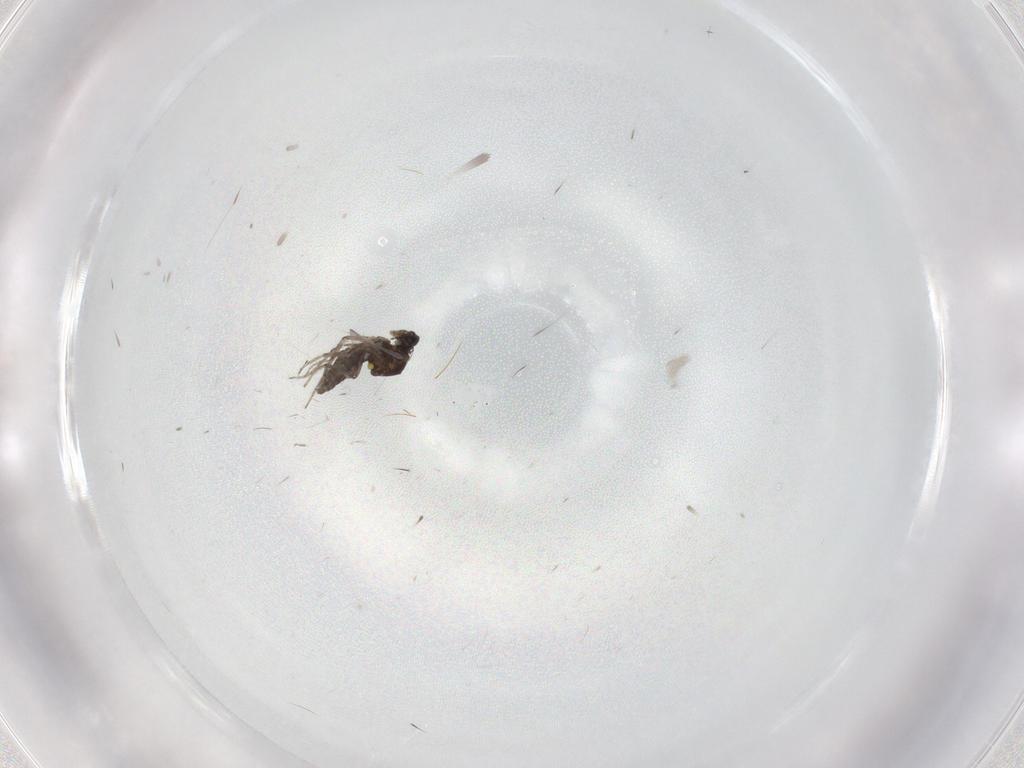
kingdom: Animalia
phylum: Arthropoda
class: Insecta
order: Diptera
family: Ceratopogonidae
